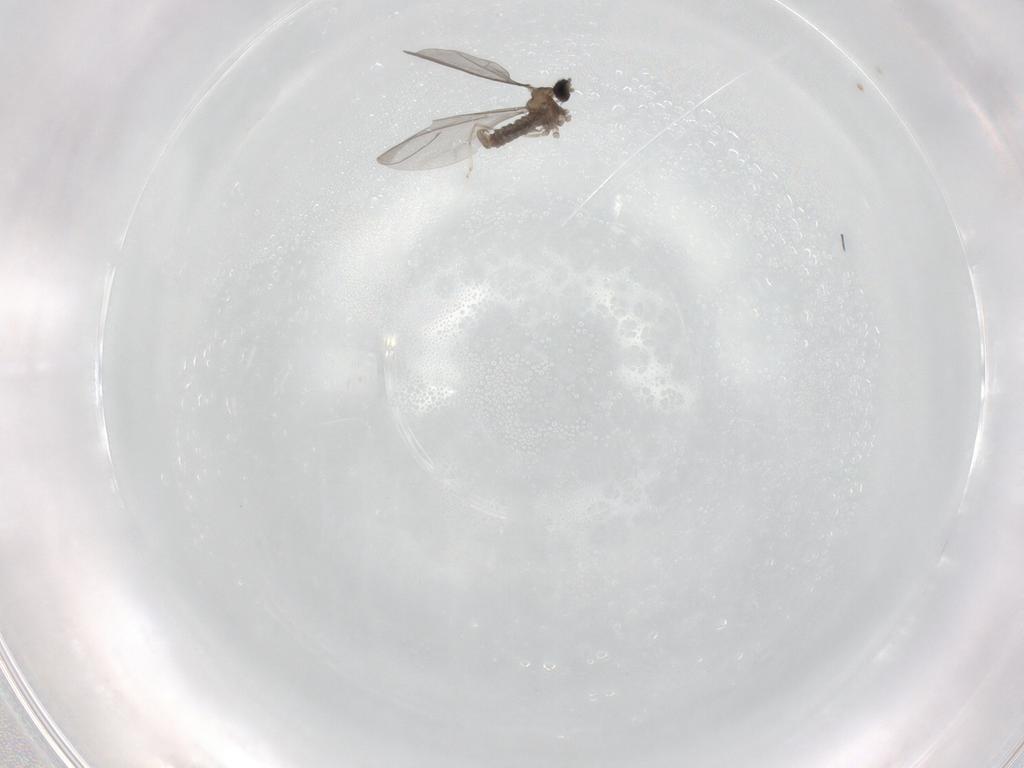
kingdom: Animalia
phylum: Arthropoda
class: Insecta
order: Diptera
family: Cecidomyiidae
